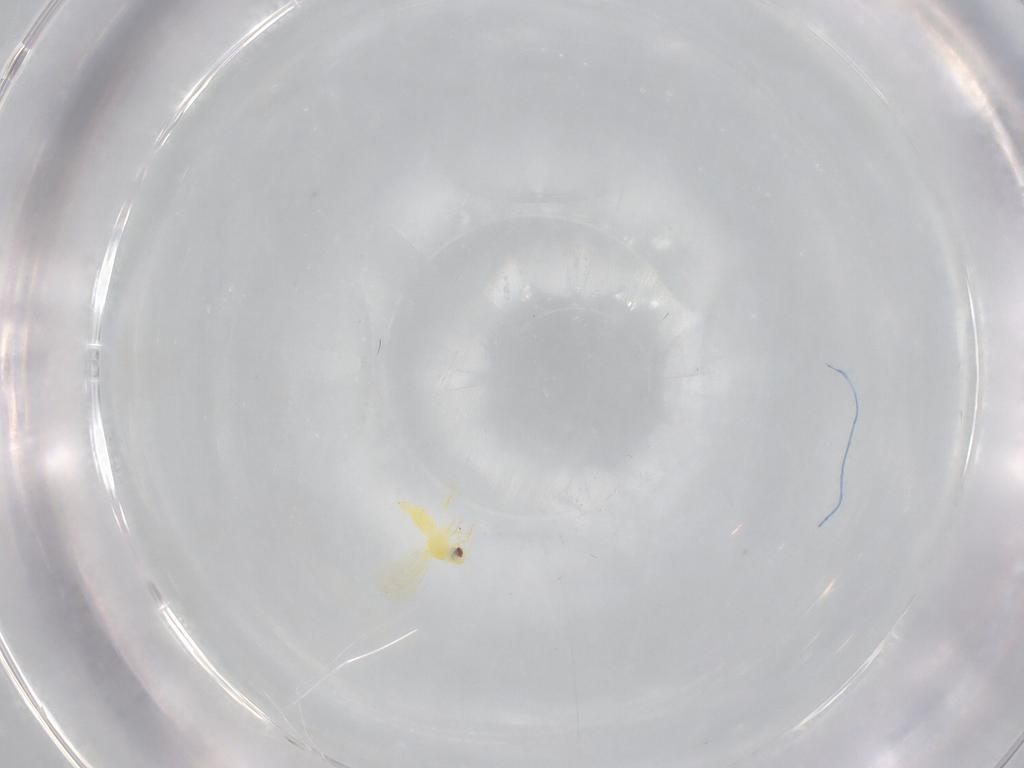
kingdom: Animalia
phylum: Arthropoda
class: Insecta
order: Hemiptera
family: Aleyrodidae
